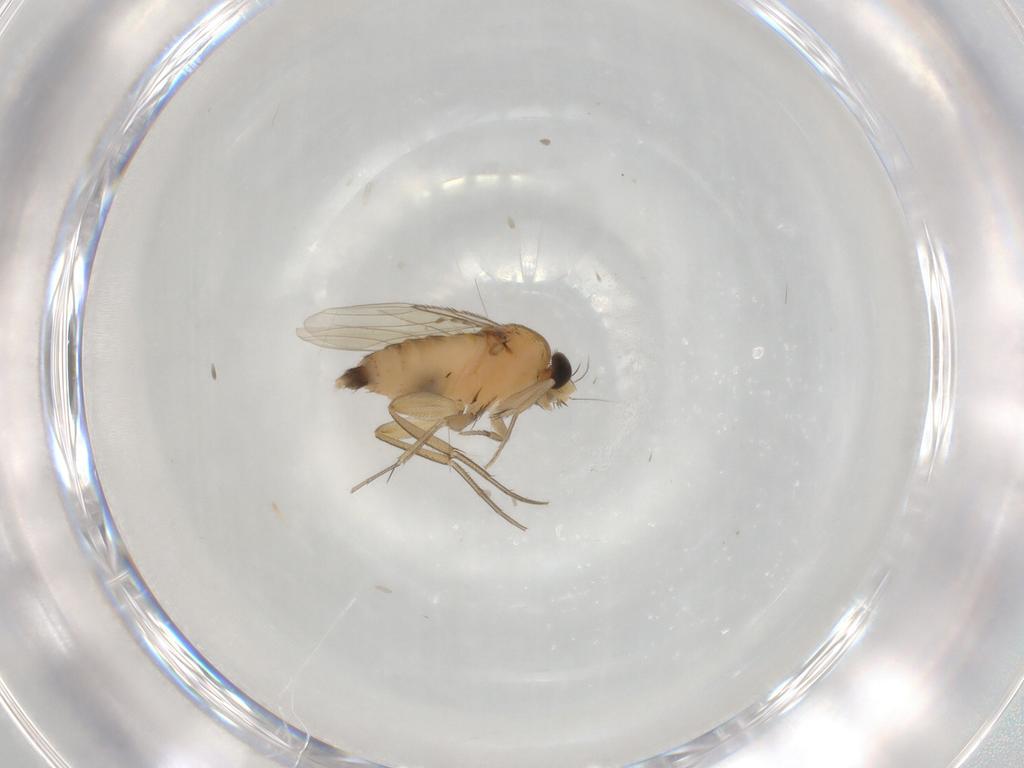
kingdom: Animalia
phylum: Arthropoda
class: Insecta
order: Diptera
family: Phoridae
